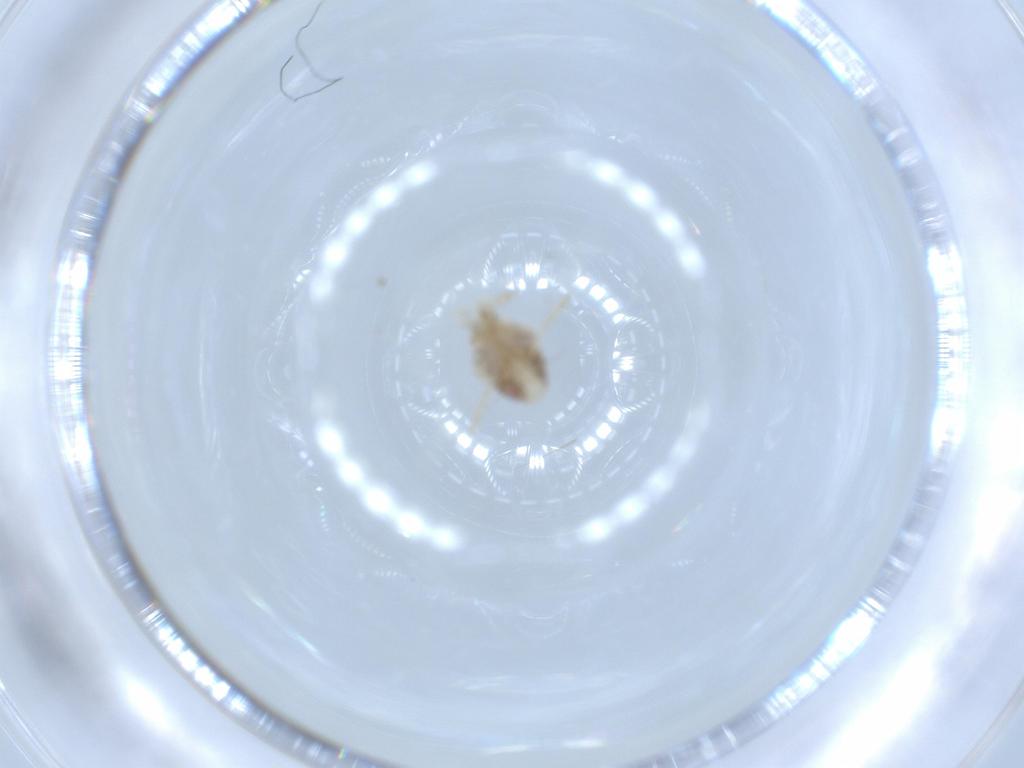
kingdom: Animalia
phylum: Arthropoda
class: Insecta
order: Hemiptera
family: Acanaloniidae
